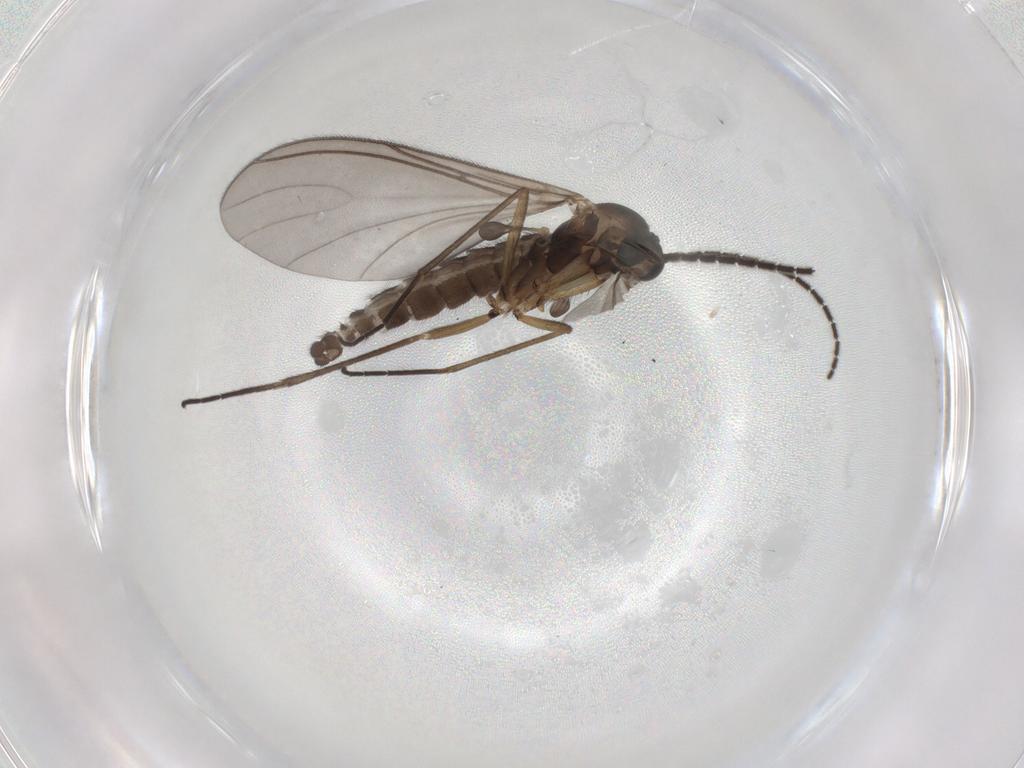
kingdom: Animalia
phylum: Arthropoda
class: Insecta
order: Diptera
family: Sciaridae
